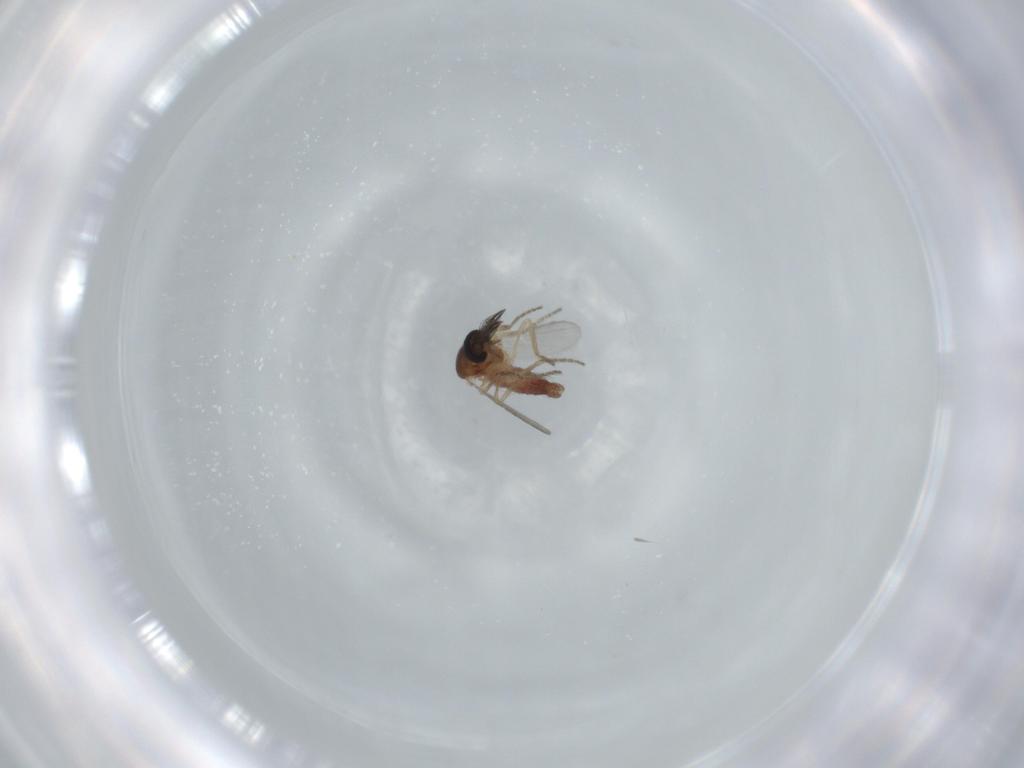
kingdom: Animalia
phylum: Arthropoda
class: Insecta
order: Diptera
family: Ceratopogonidae
